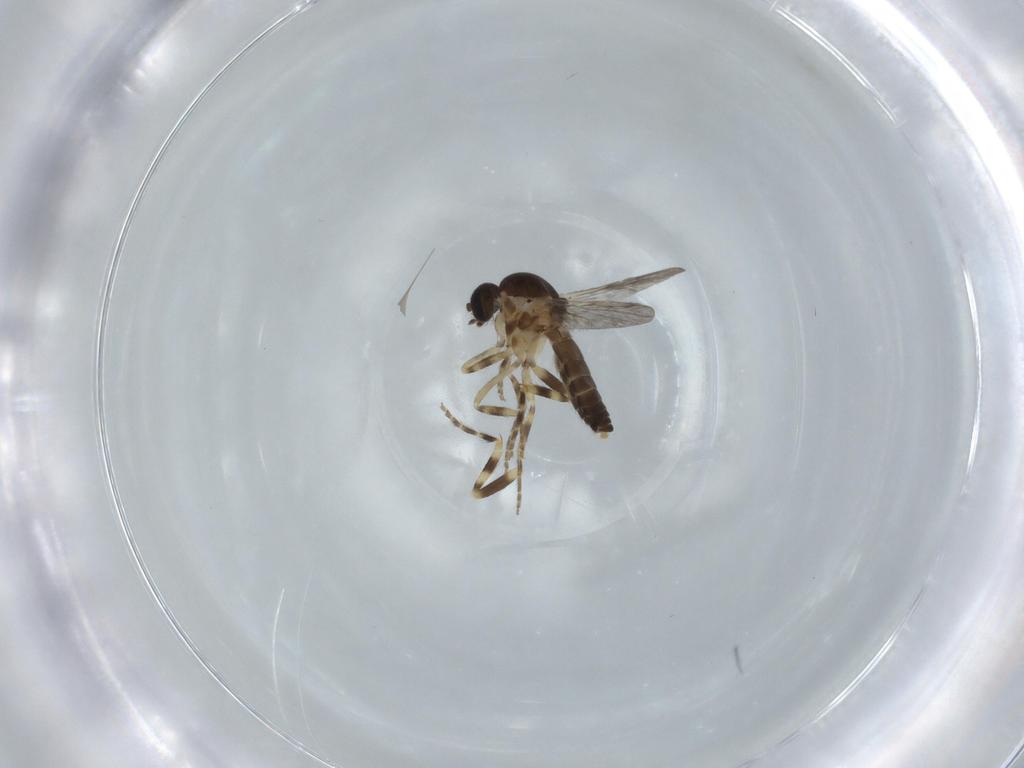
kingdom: Animalia
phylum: Arthropoda
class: Insecta
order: Diptera
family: Ceratopogonidae
